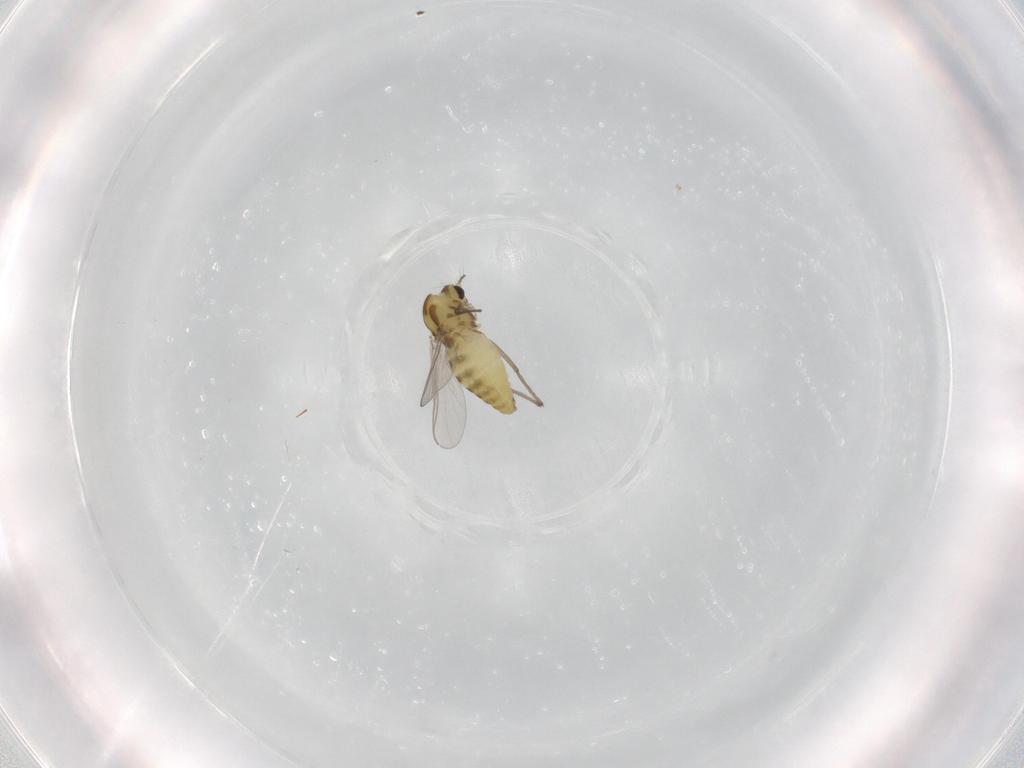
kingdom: Animalia
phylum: Arthropoda
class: Insecta
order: Diptera
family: Chironomidae
